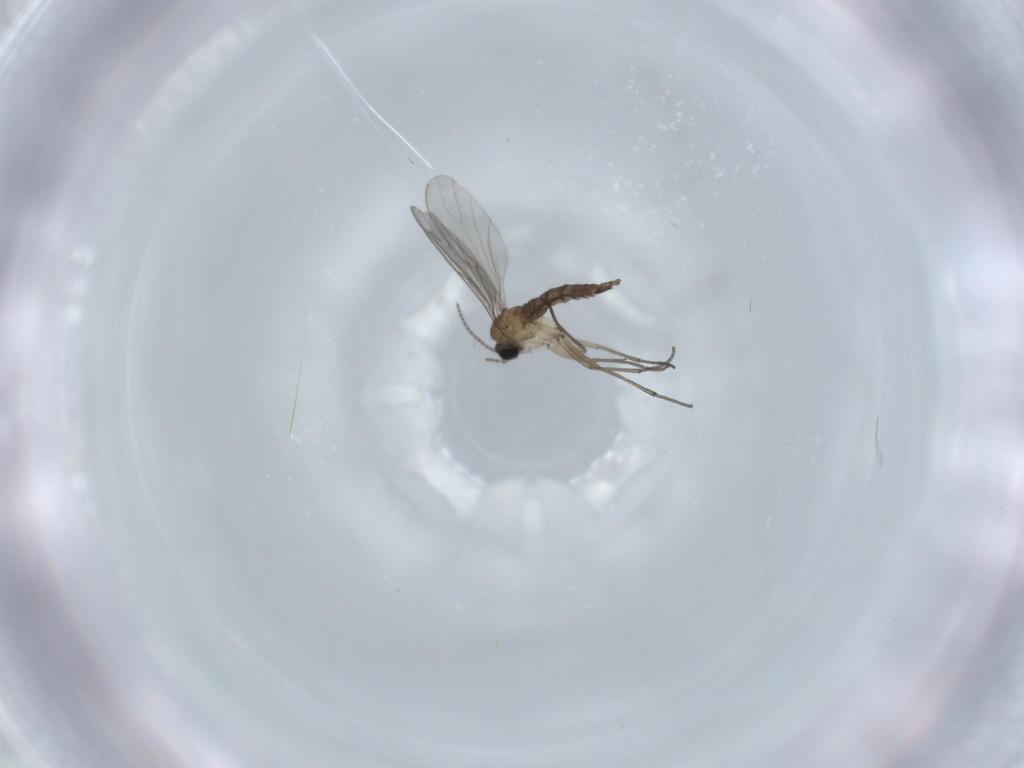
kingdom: Animalia
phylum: Arthropoda
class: Insecta
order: Diptera
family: Sciaridae
